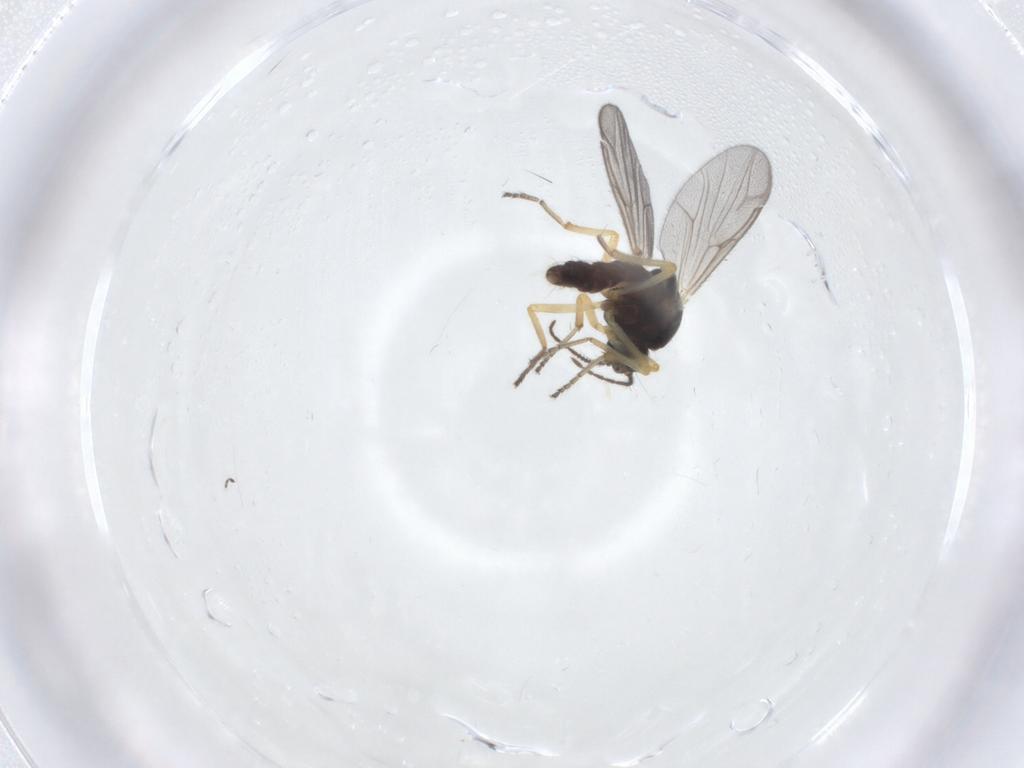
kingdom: Animalia
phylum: Arthropoda
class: Insecta
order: Diptera
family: Ceratopogonidae
